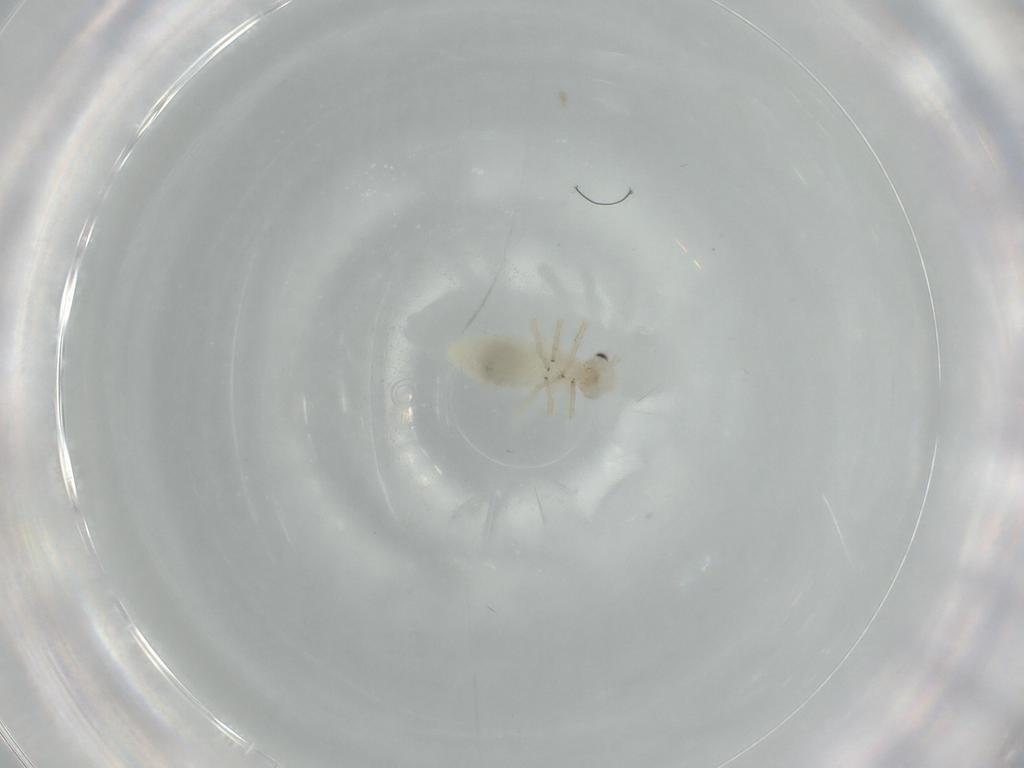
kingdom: Animalia
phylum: Arthropoda
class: Insecta
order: Psocodea
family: Caeciliusidae
